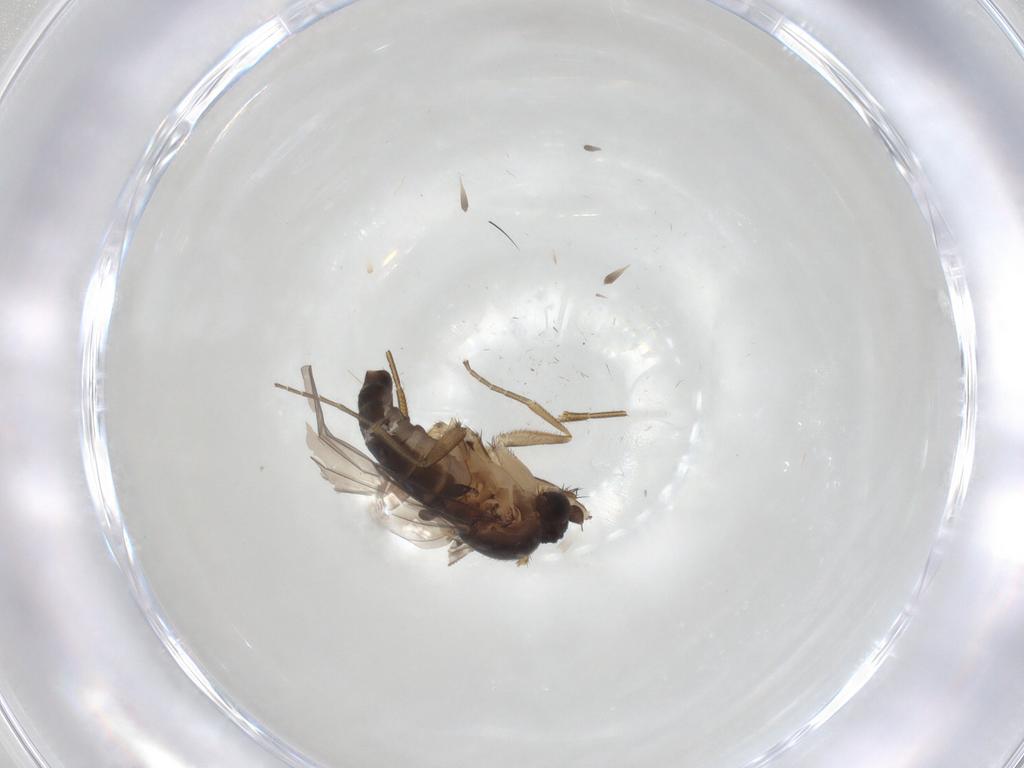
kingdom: Animalia
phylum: Arthropoda
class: Insecta
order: Diptera
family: Phoridae
